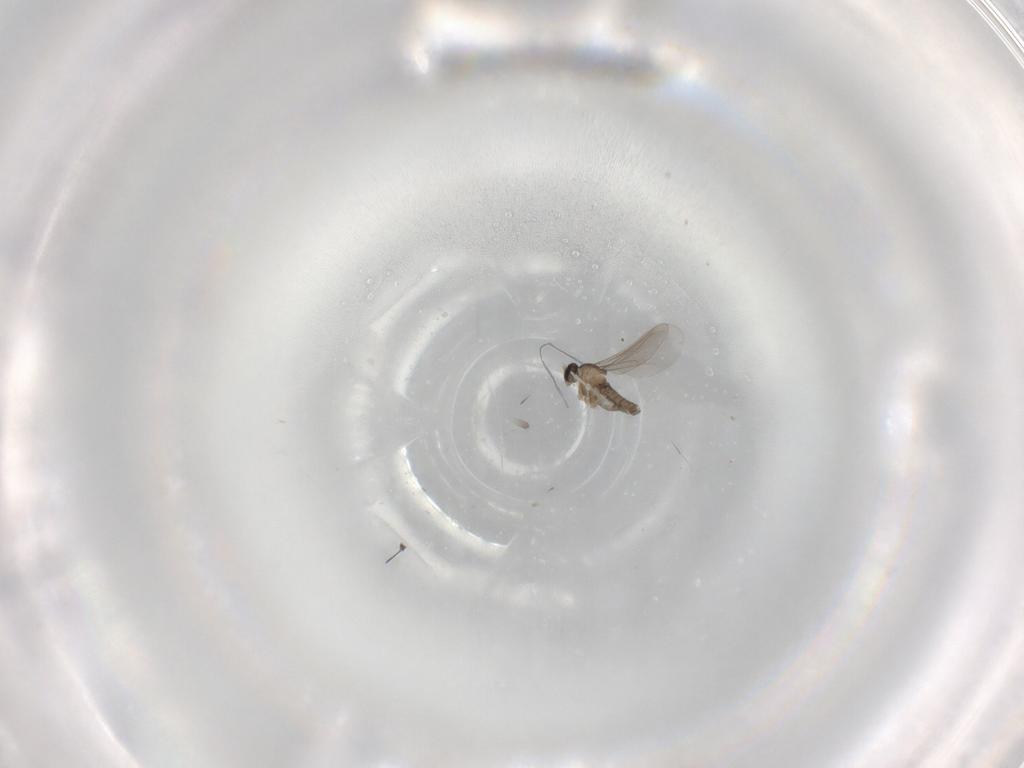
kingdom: Animalia
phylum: Arthropoda
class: Insecta
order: Diptera
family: Cecidomyiidae
